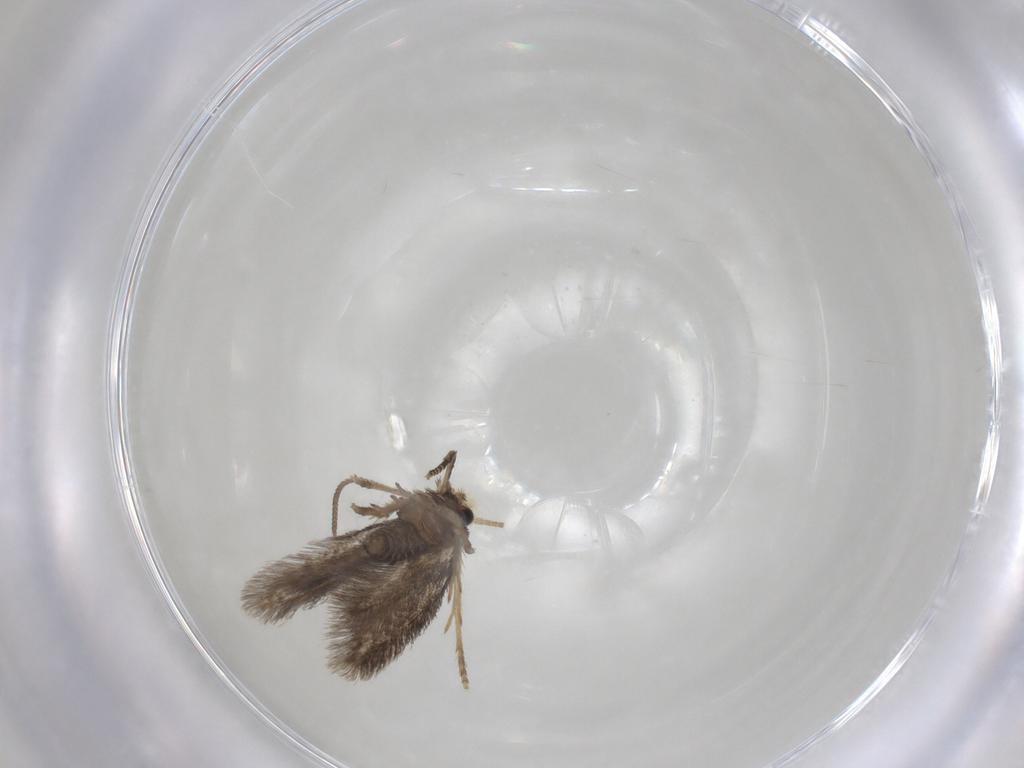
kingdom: Animalia
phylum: Arthropoda
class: Insecta
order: Lepidoptera
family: Nepticulidae
